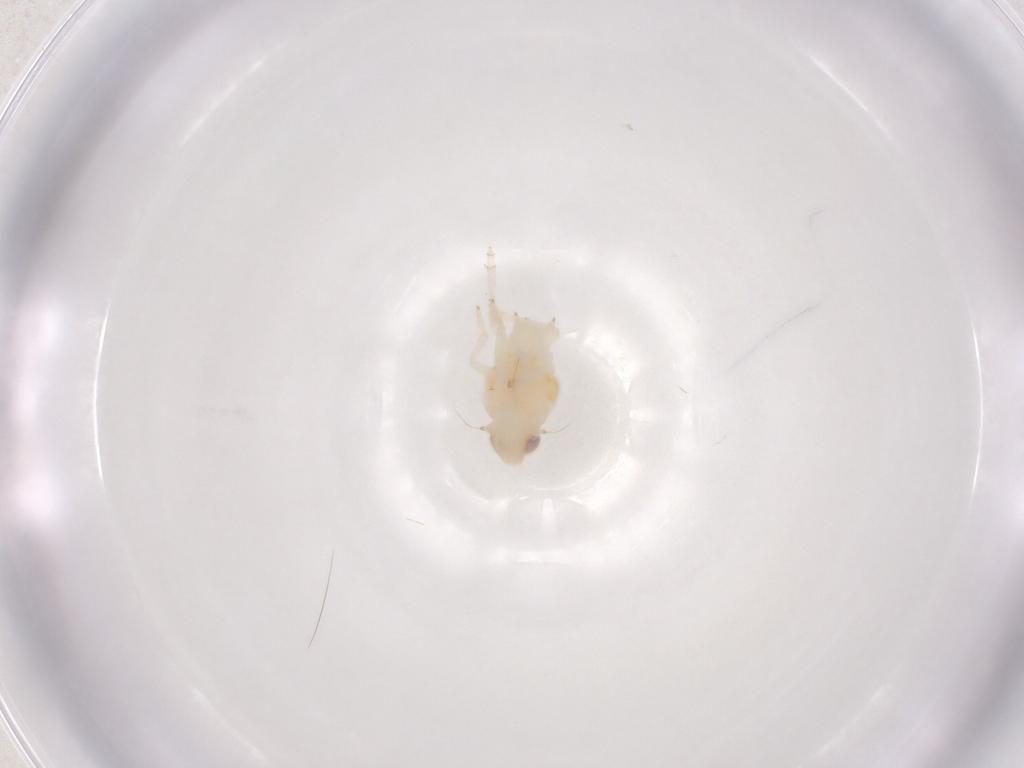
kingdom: Animalia
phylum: Arthropoda
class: Insecta
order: Hemiptera
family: Nogodinidae
